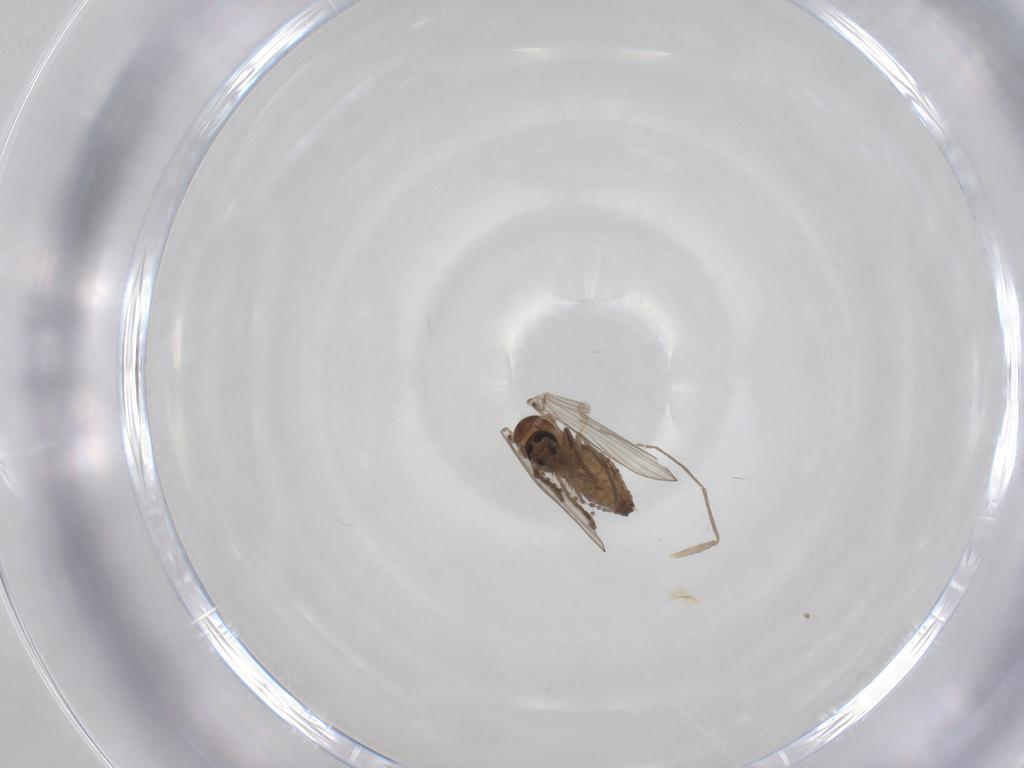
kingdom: Animalia
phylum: Arthropoda
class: Insecta
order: Diptera
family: Psychodidae
